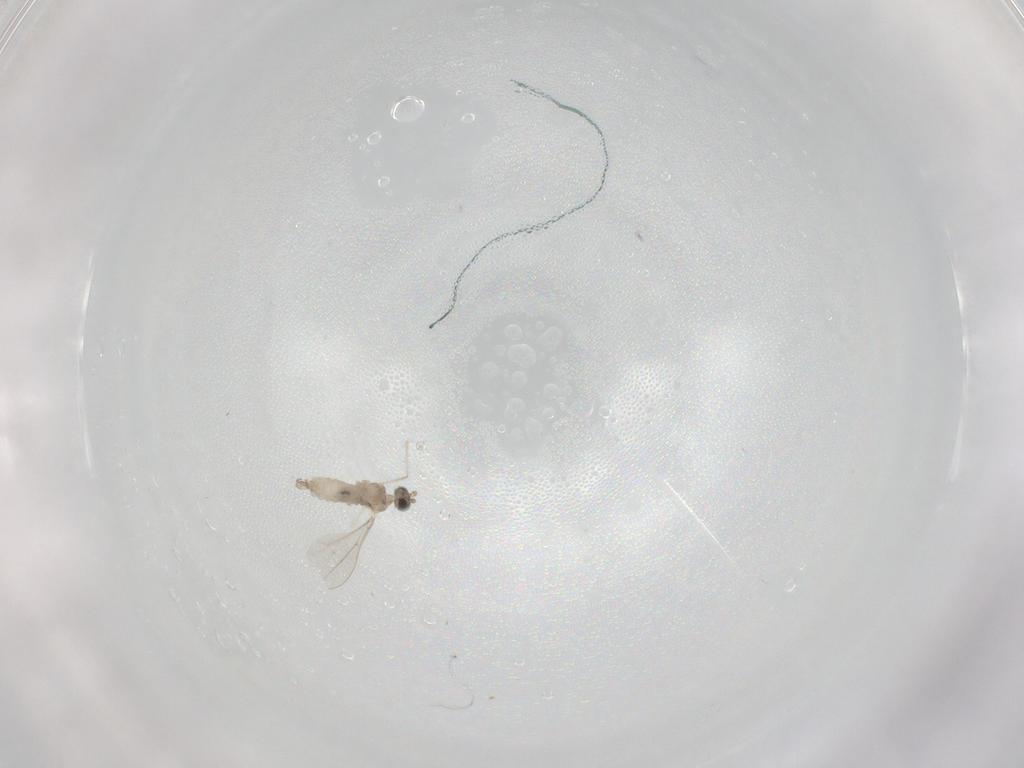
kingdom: Animalia
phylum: Arthropoda
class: Insecta
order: Diptera
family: Cecidomyiidae
